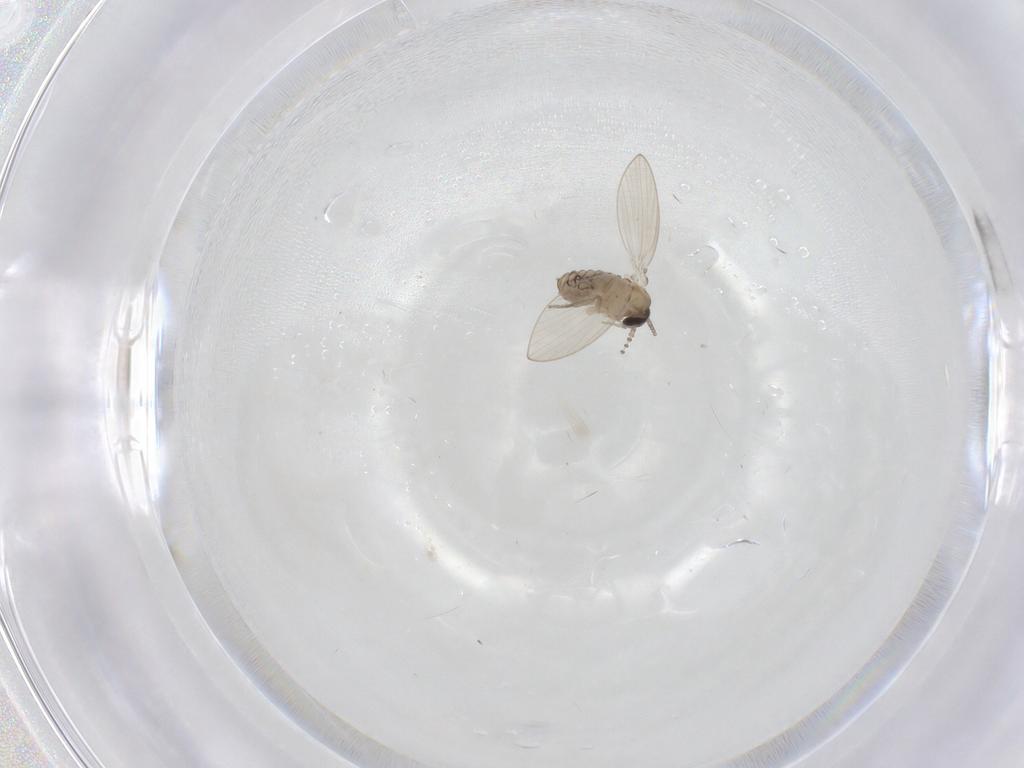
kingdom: Animalia
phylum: Arthropoda
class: Insecta
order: Diptera
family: Psychodidae
